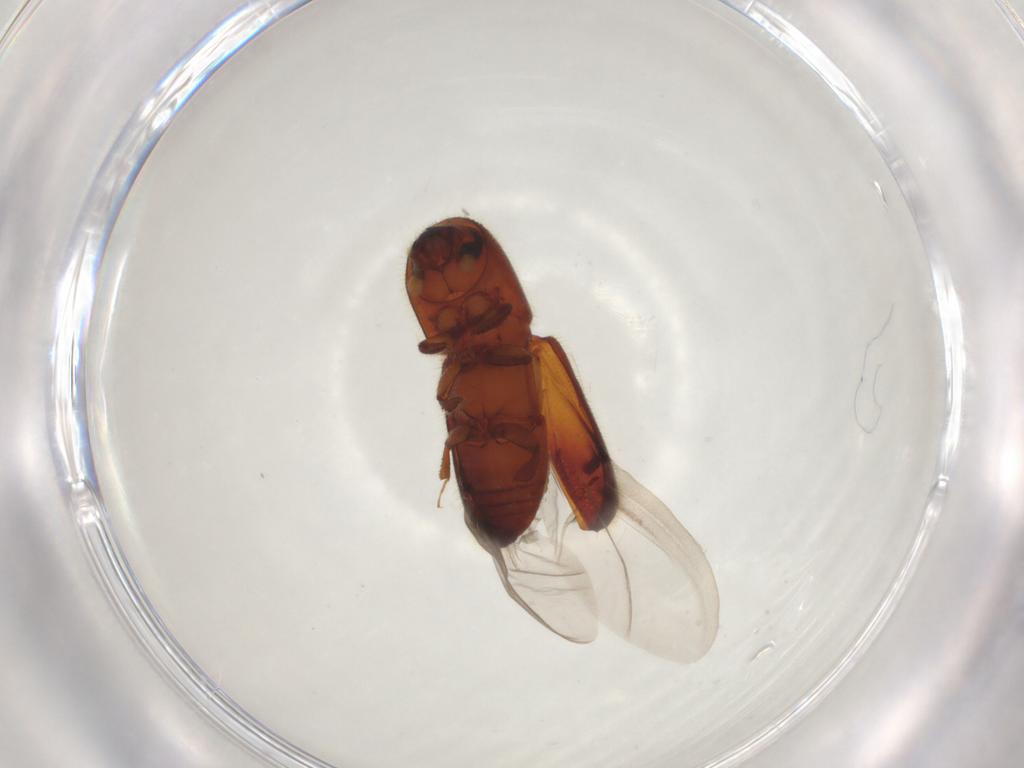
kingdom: Animalia
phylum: Arthropoda
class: Insecta
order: Coleoptera
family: Curculionidae
